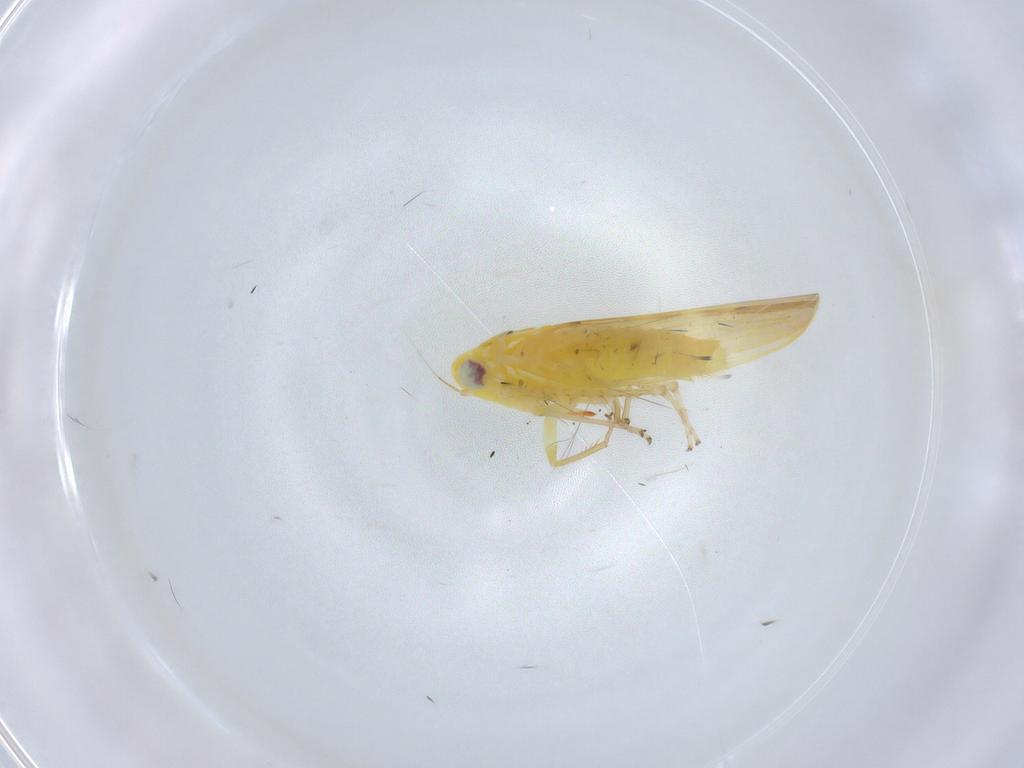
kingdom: Animalia
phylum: Arthropoda
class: Insecta
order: Hemiptera
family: Cicadellidae
